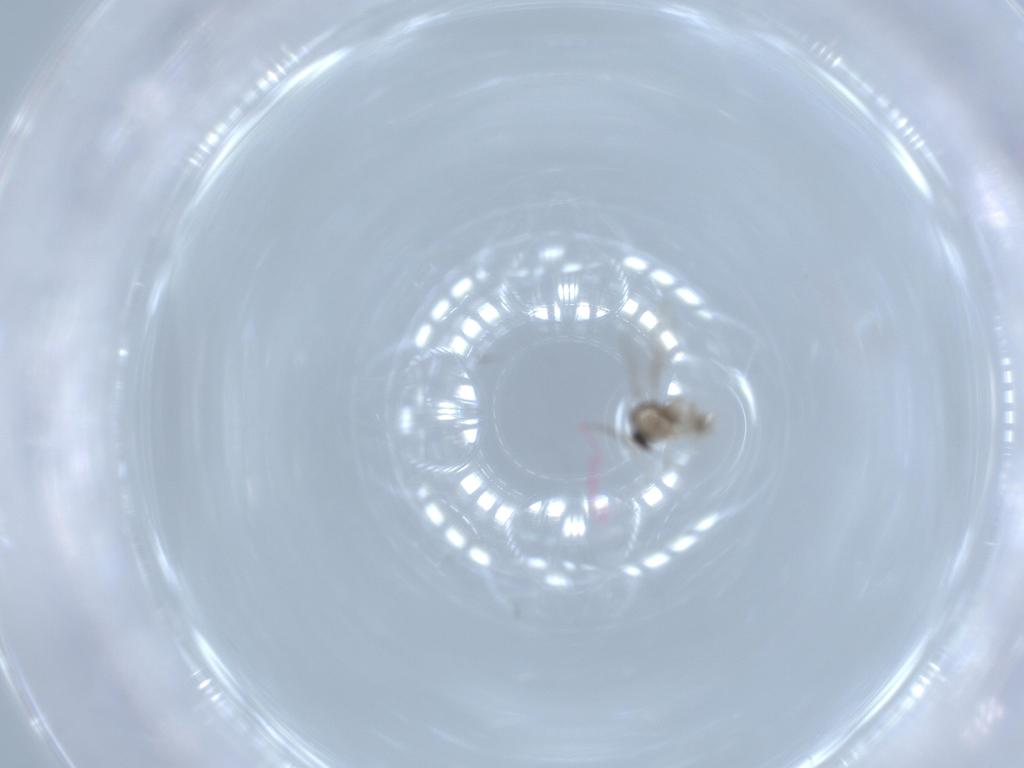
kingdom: Animalia
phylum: Arthropoda
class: Insecta
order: Diptera
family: Cecidomyiidae
